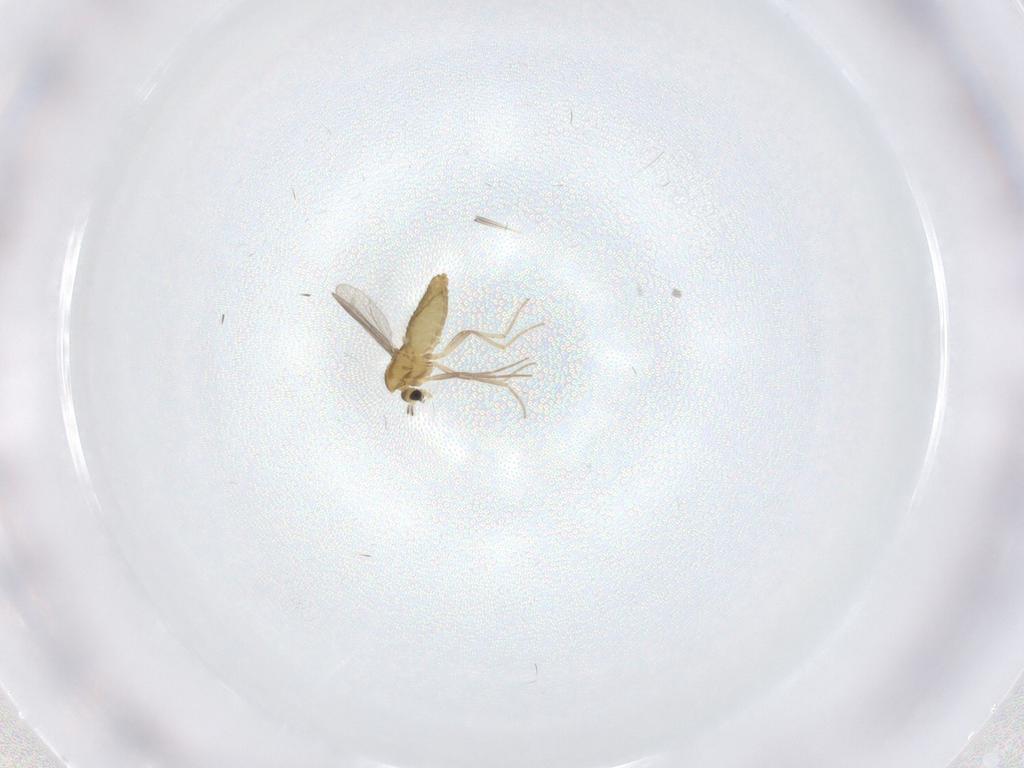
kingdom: Animalia
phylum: Arthropoda
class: Insecta
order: Diptera
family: Chironomidae
